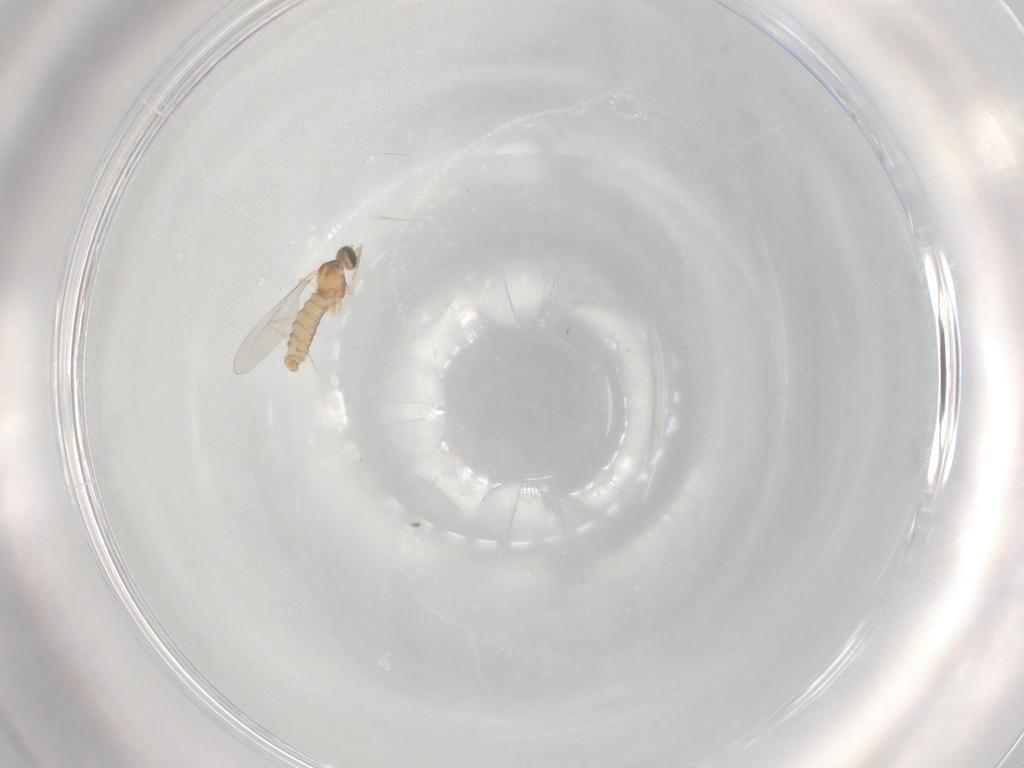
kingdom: Animalia
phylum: Arthropoda
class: Insecta
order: Diptera
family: Cecidomyiidae
